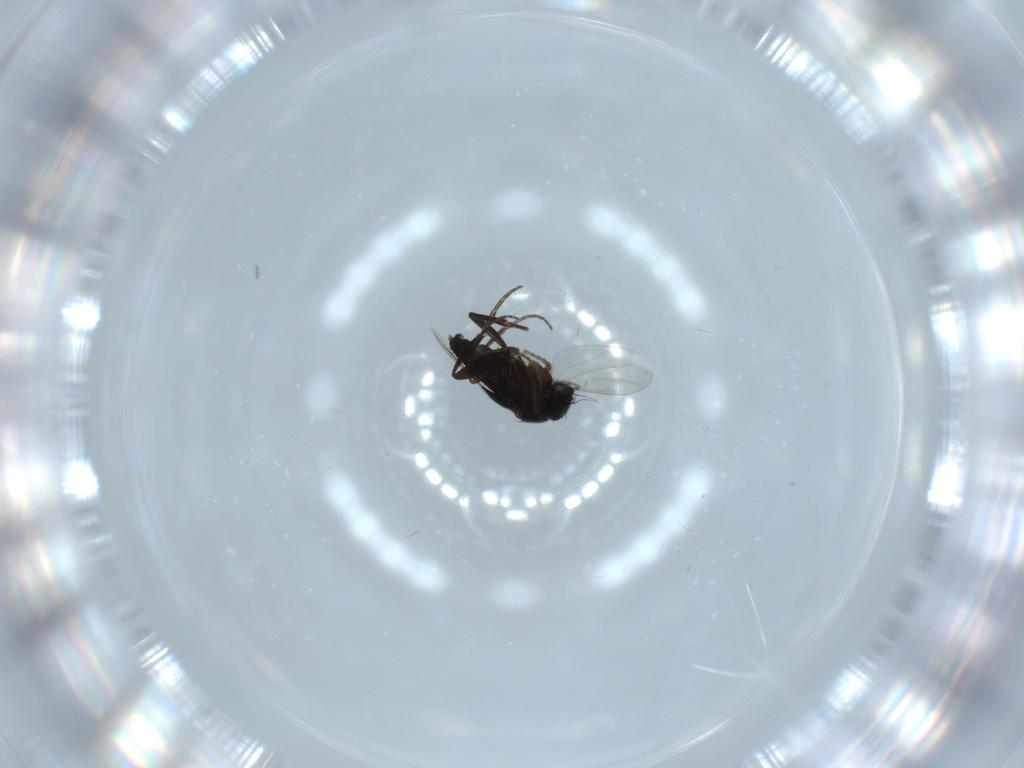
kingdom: Animalia
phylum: Arthropoda
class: Insecta
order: Diptera
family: Phoridae
